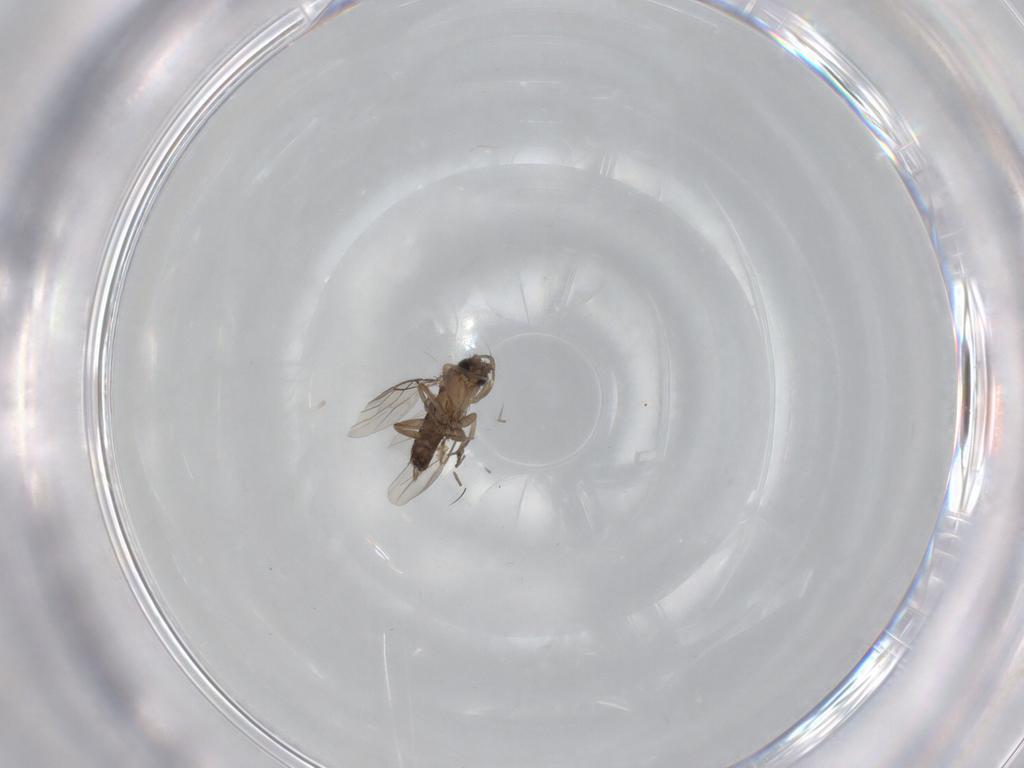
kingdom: Animalia
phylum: Arthropoda
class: Insecta
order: Diptera
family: Phoridae
